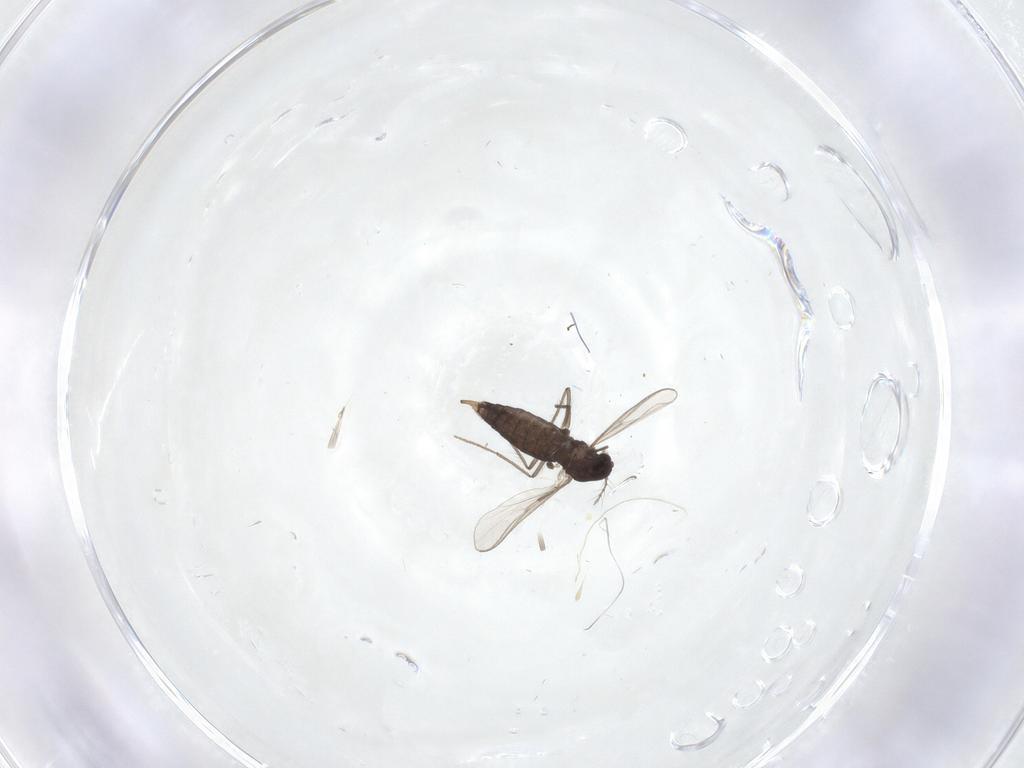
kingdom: Animalia
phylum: Arthropoda
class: Insecta
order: Diptera
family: Chironomidae
